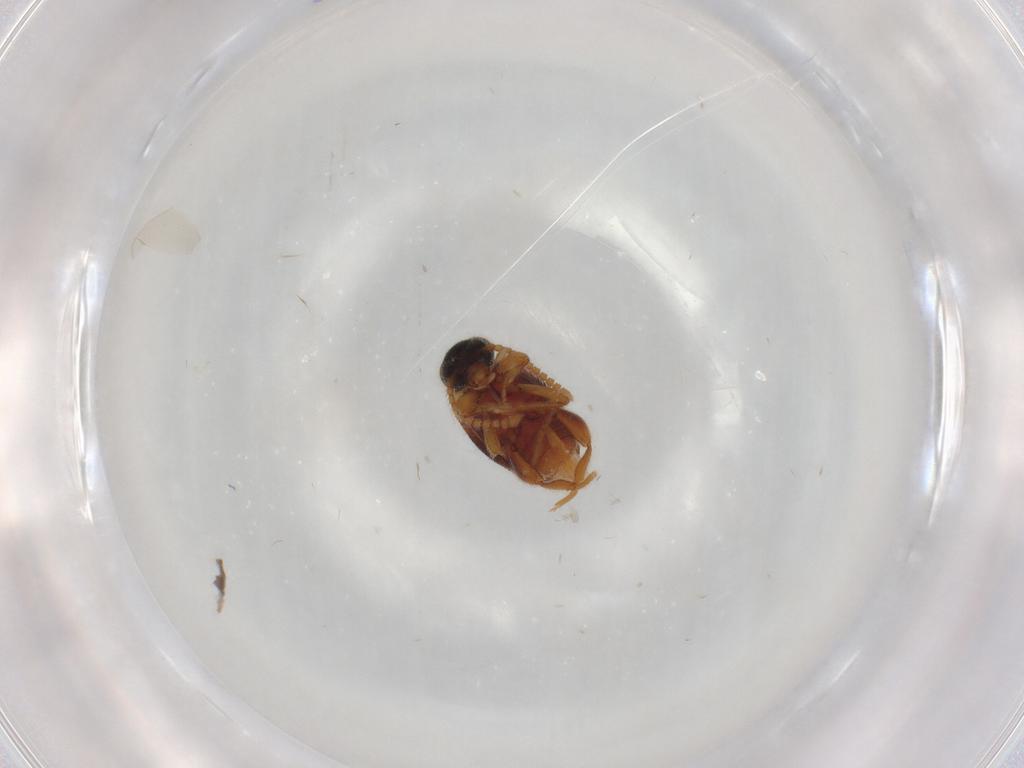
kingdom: Animalia
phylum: Arthropoda
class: Insecta
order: Coleoptera
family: Aderidae
